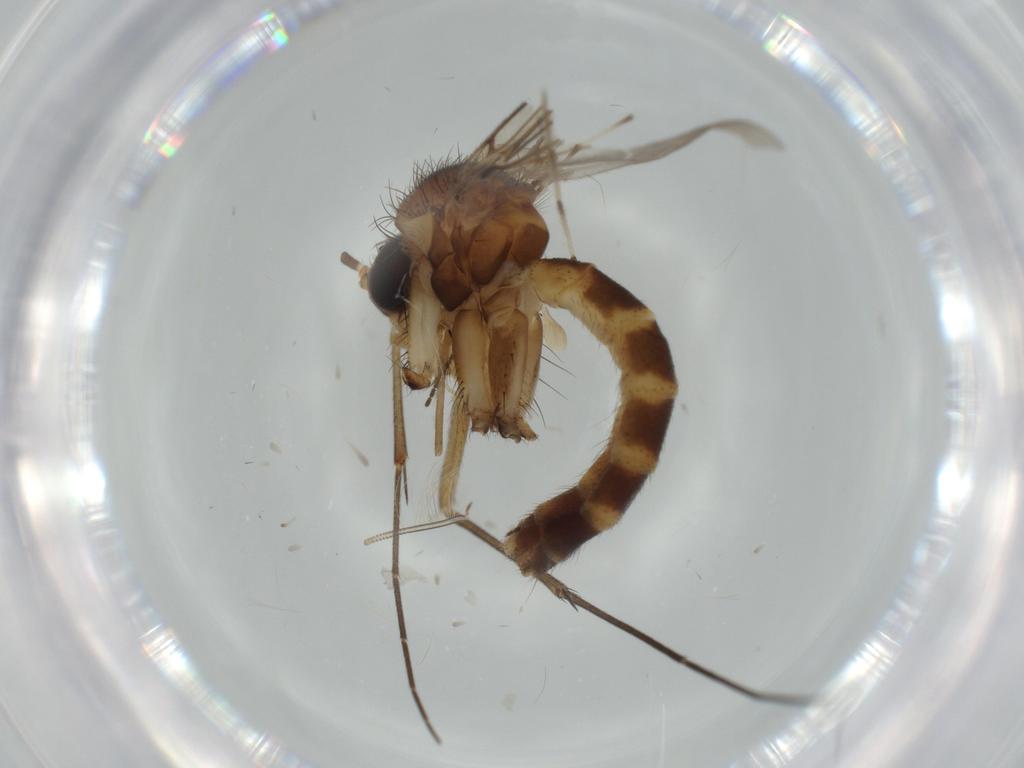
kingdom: Animalia
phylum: Arthropoda
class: Insecta
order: Diptera
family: Mycetophilidae
